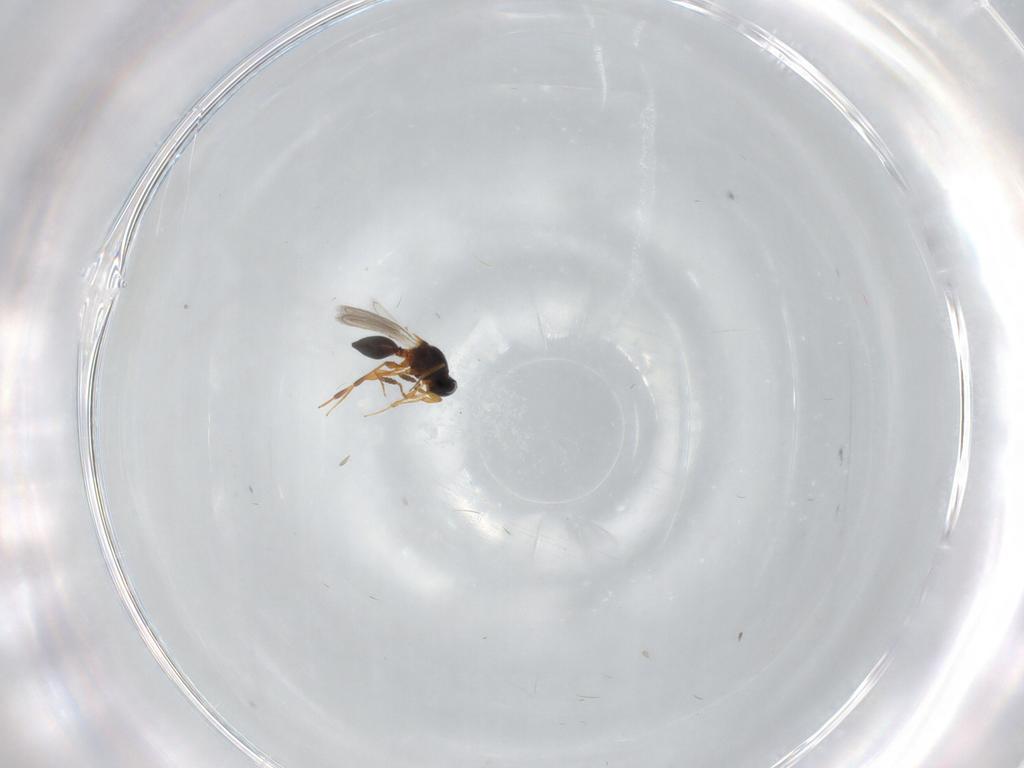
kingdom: Animalia
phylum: Arthropoda
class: Insecta
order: Hymenoptera
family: Platygastridae
